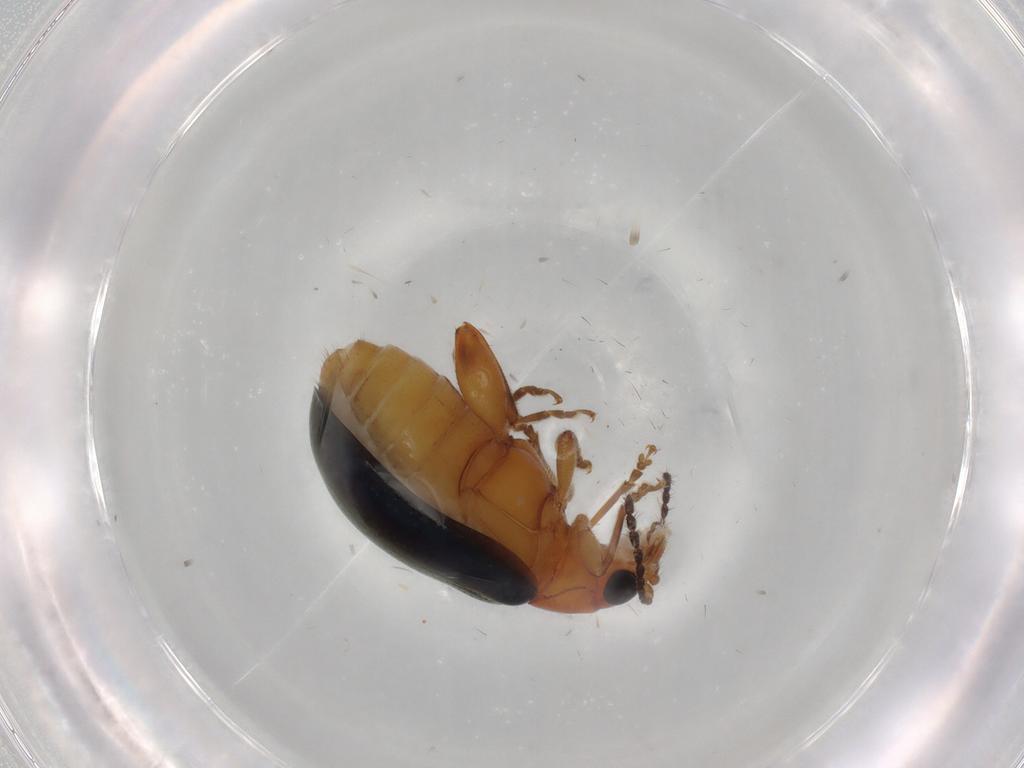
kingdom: Animalia
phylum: Arthropoda
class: Insecta
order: Coleoptera
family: Chrysomelidae
